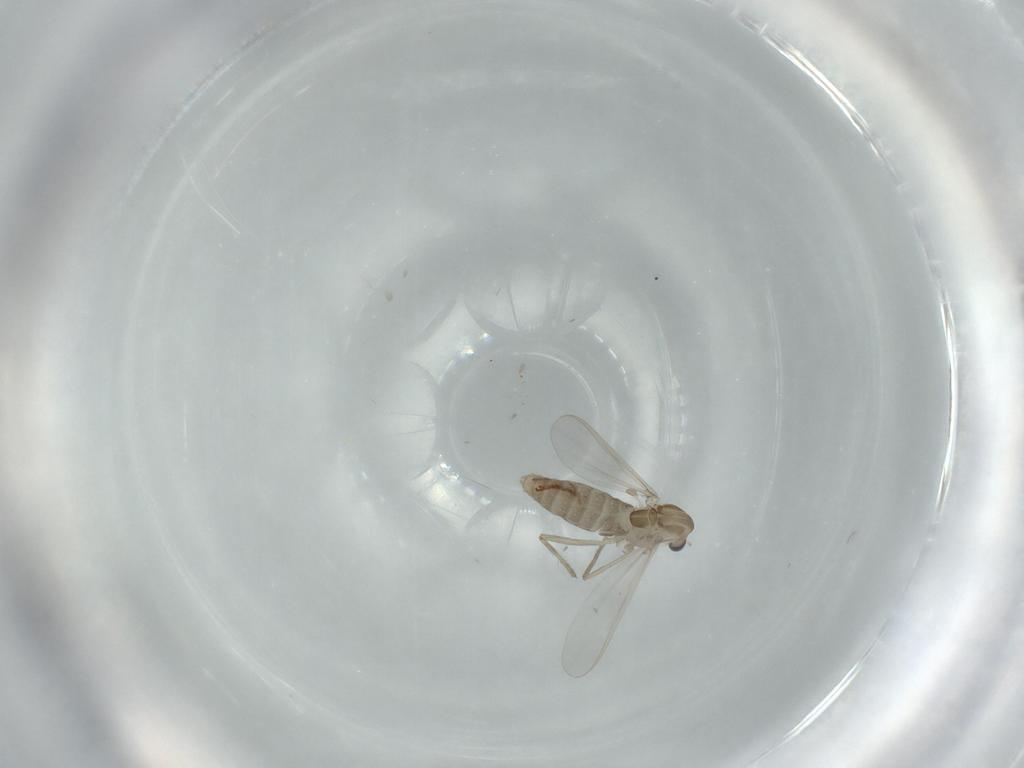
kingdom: Animalia
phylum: Arthropoda
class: Insecta
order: Diptera
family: Chironomidae
